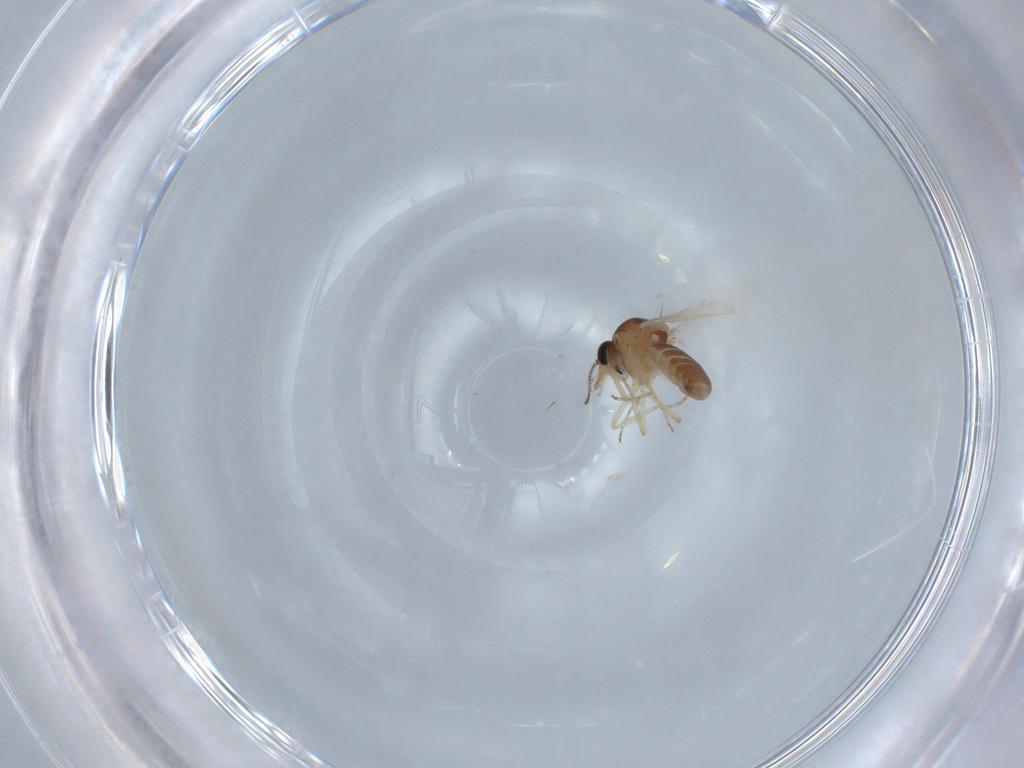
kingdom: Animalia
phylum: Arthropoda
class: Insecta
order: Diptera
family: Ceratopogonidae
